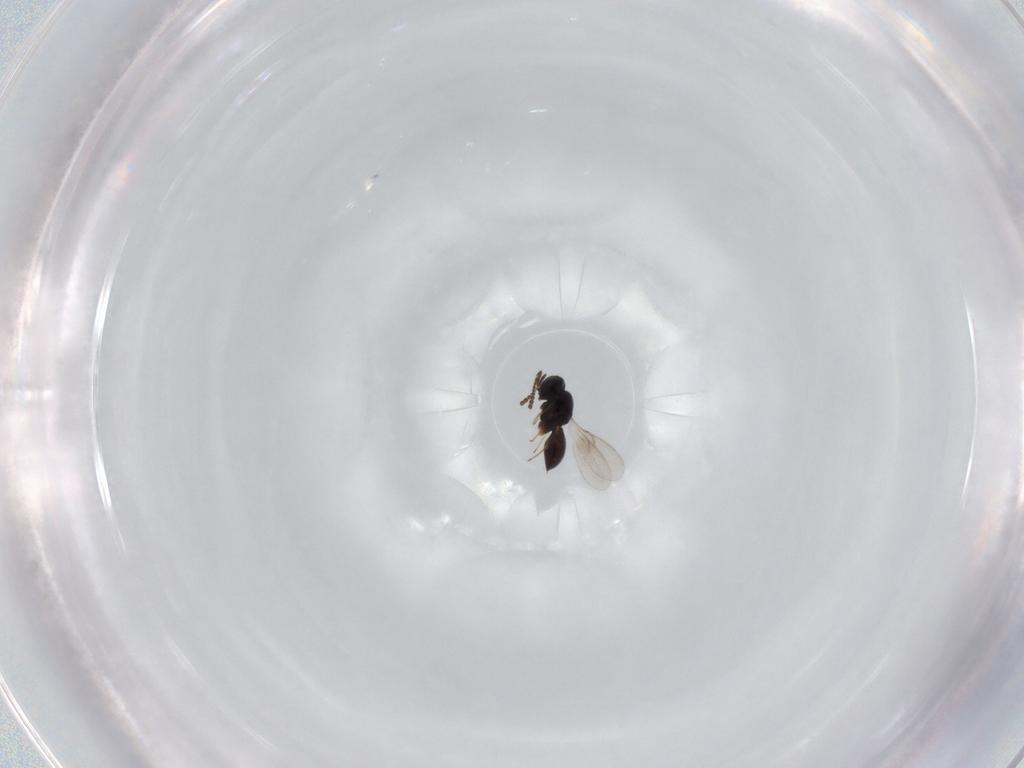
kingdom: Animalia
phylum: Arthropoda
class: Insecta
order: Hymenoptera
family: Scelionidae
